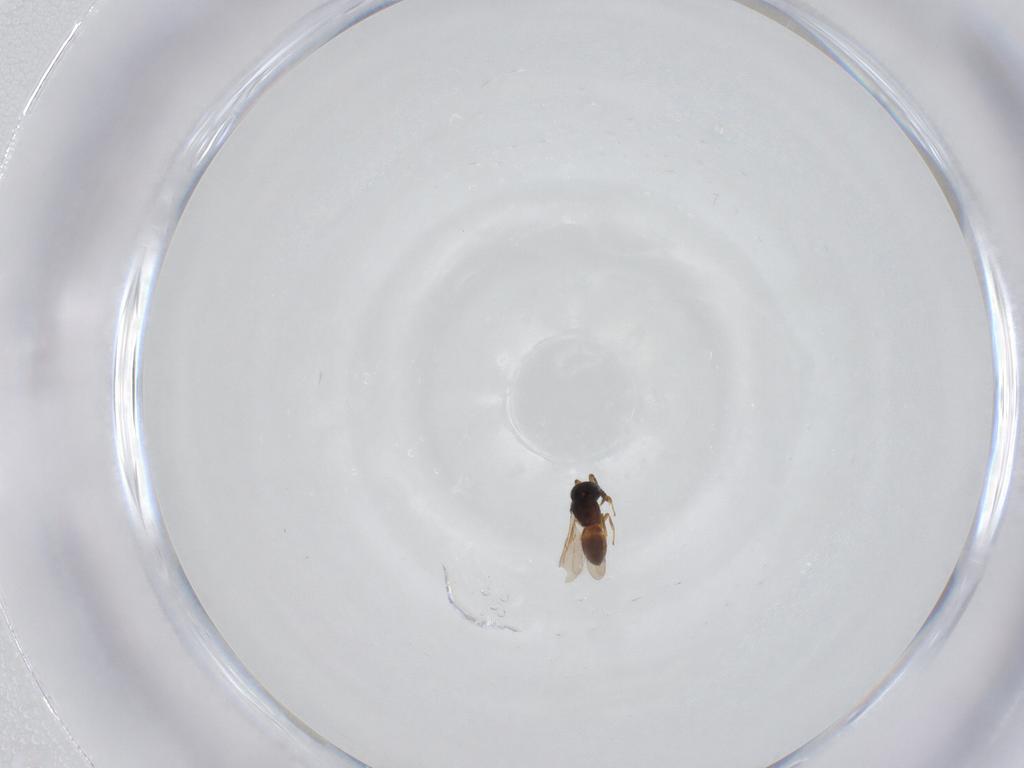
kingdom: Animalia
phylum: Arthropoda
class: Insecta
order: Hymenoptera
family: Scelionidae
